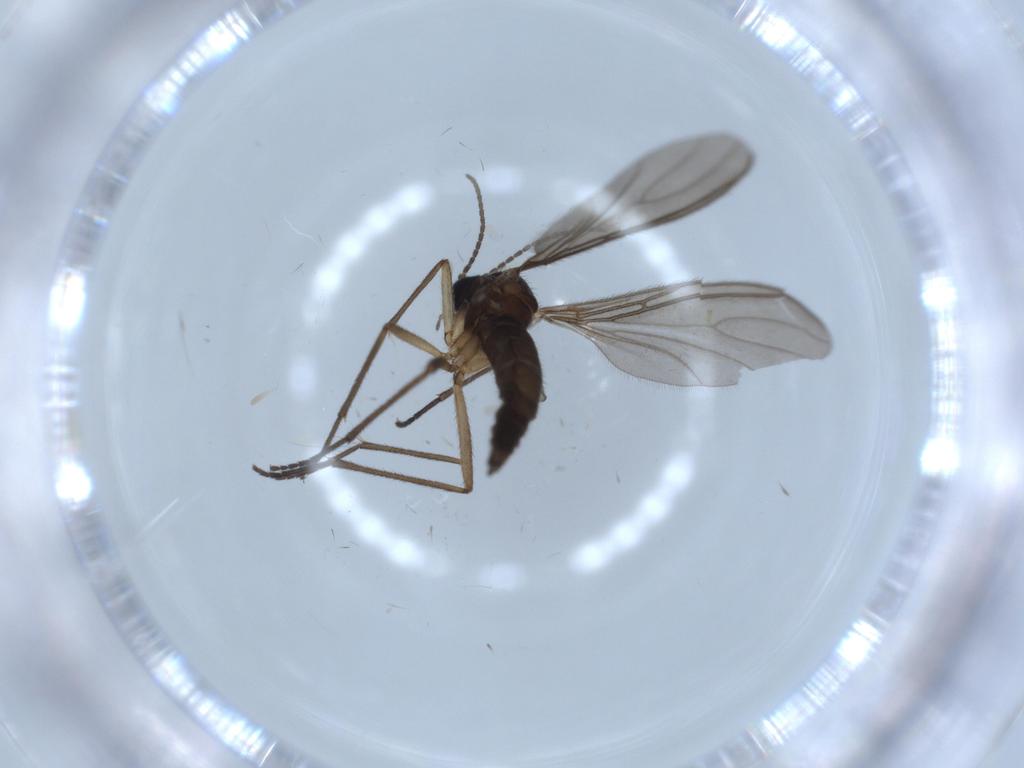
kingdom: Animalia
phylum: Arthropoda
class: Insecta
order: Diptera
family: Sciaridae
